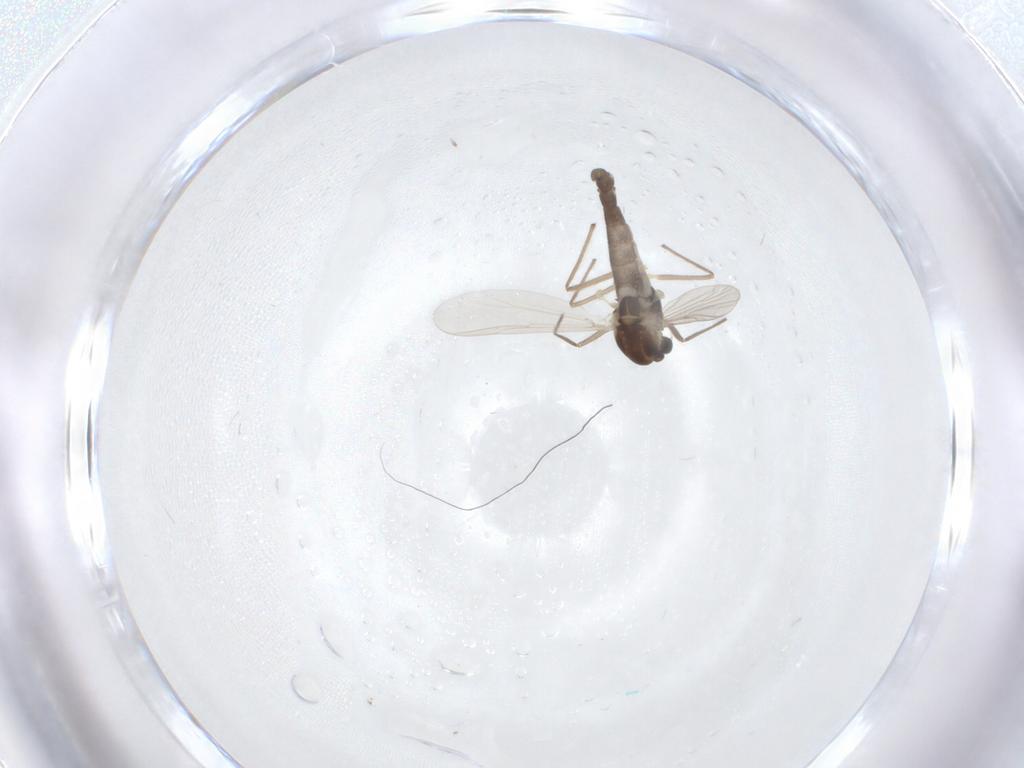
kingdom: Animalia
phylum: Arthropoda
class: Insecta
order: Diptera
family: Chironomidae
